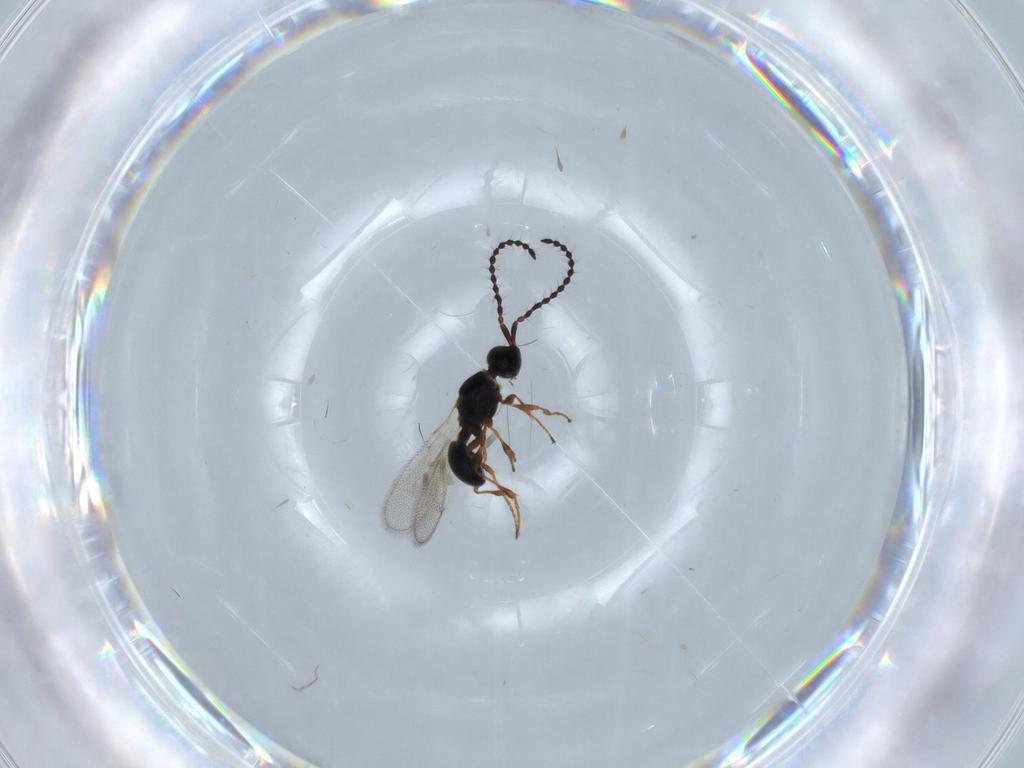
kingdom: Animalia
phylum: Arthropoda
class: Insecta
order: Hymenoptera
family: Diapriidae
